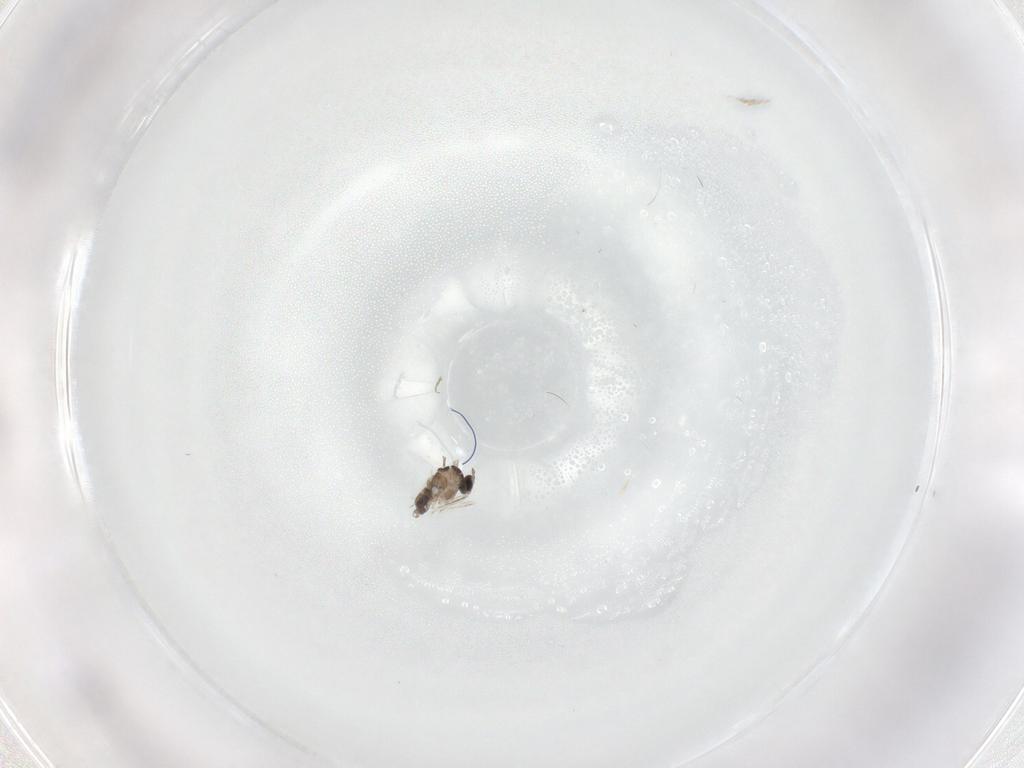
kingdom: Animalia
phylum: Arthropoda
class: Insecta
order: Diptera
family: Cecidomyiidae
